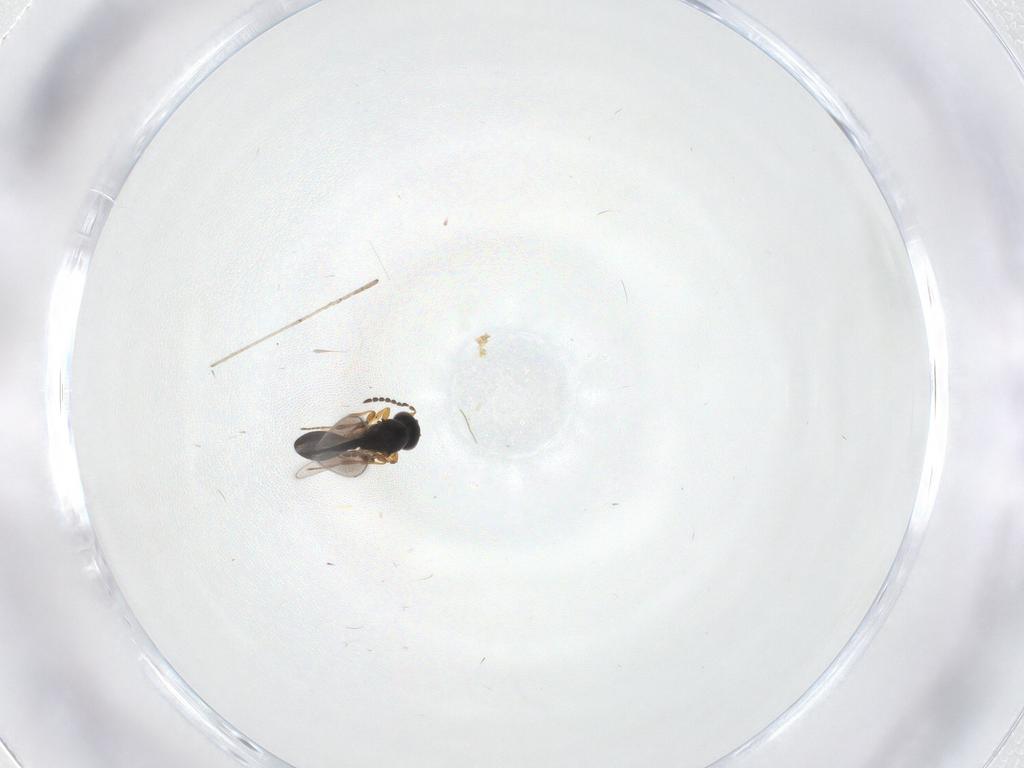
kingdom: Animalia
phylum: Arthropoda
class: Insecta
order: Hymenoptera
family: Platygastridae
